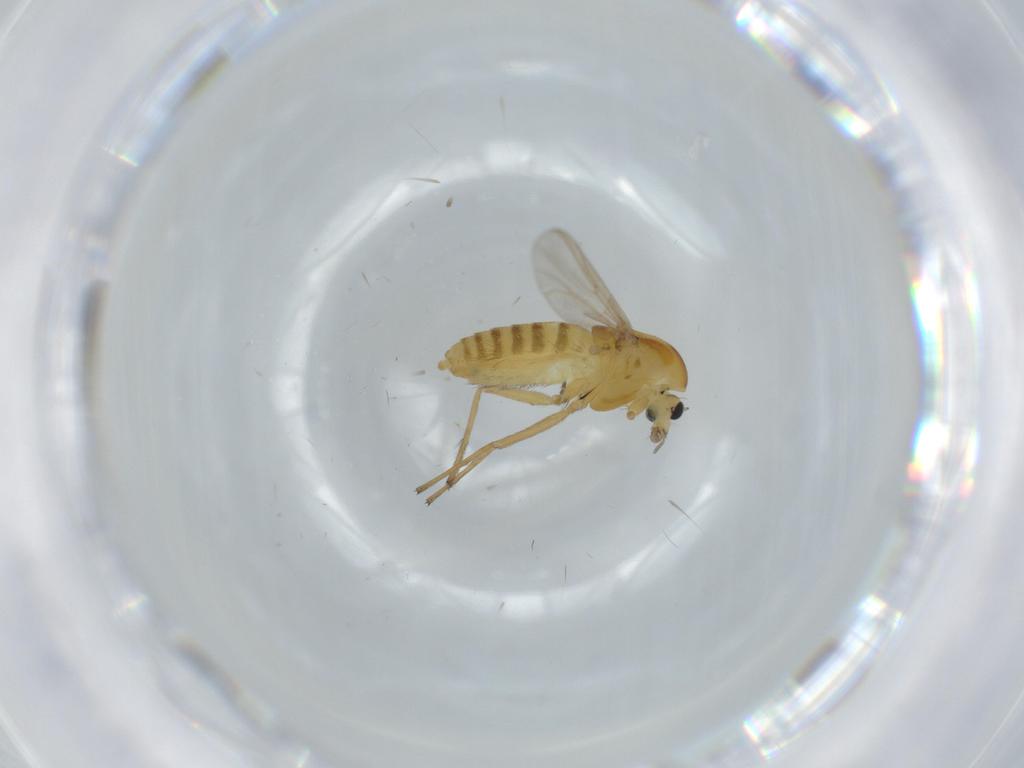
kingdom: Animalia
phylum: Arthropoda
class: Insecta
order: Diptera
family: Chironomidae
